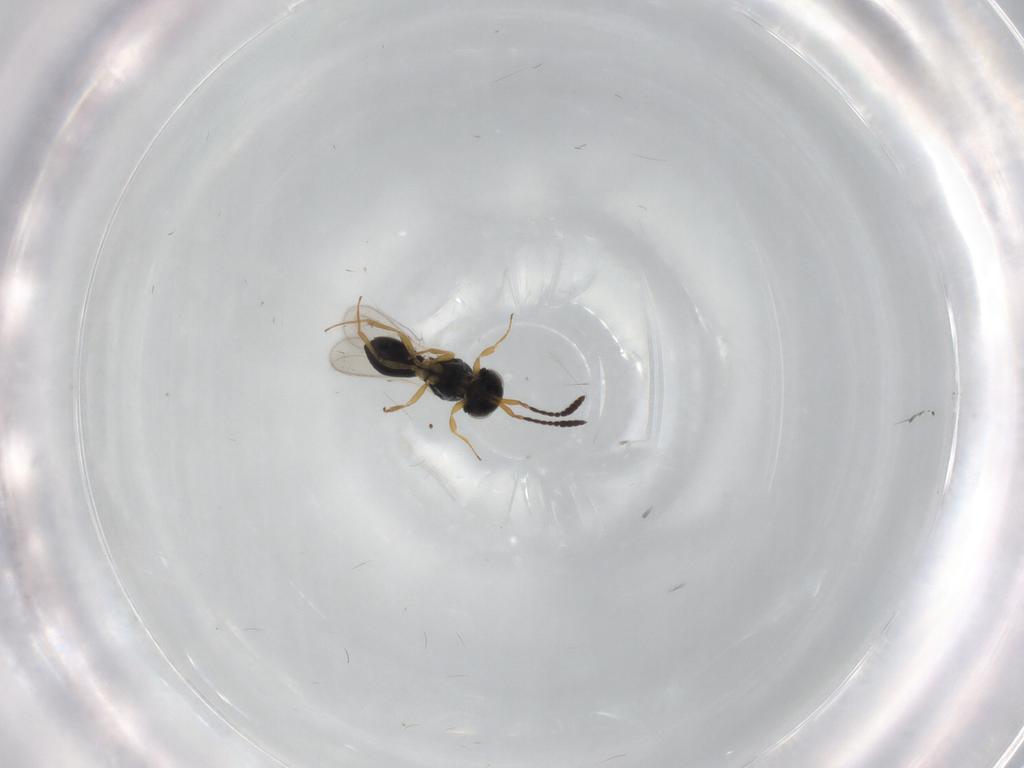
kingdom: Animalia
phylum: Arthropoda
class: Insecta
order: Hymenoptera
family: Scelionidae
